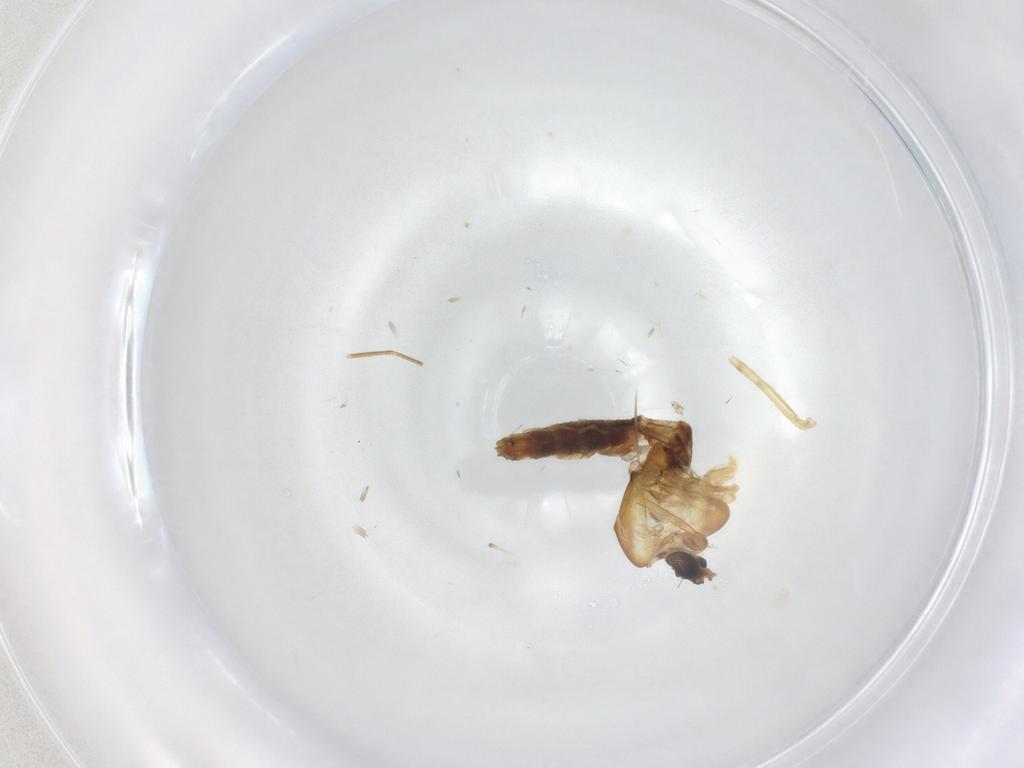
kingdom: Animalia
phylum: Arthropoda
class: Insecta
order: Diptera
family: Chironomidae
